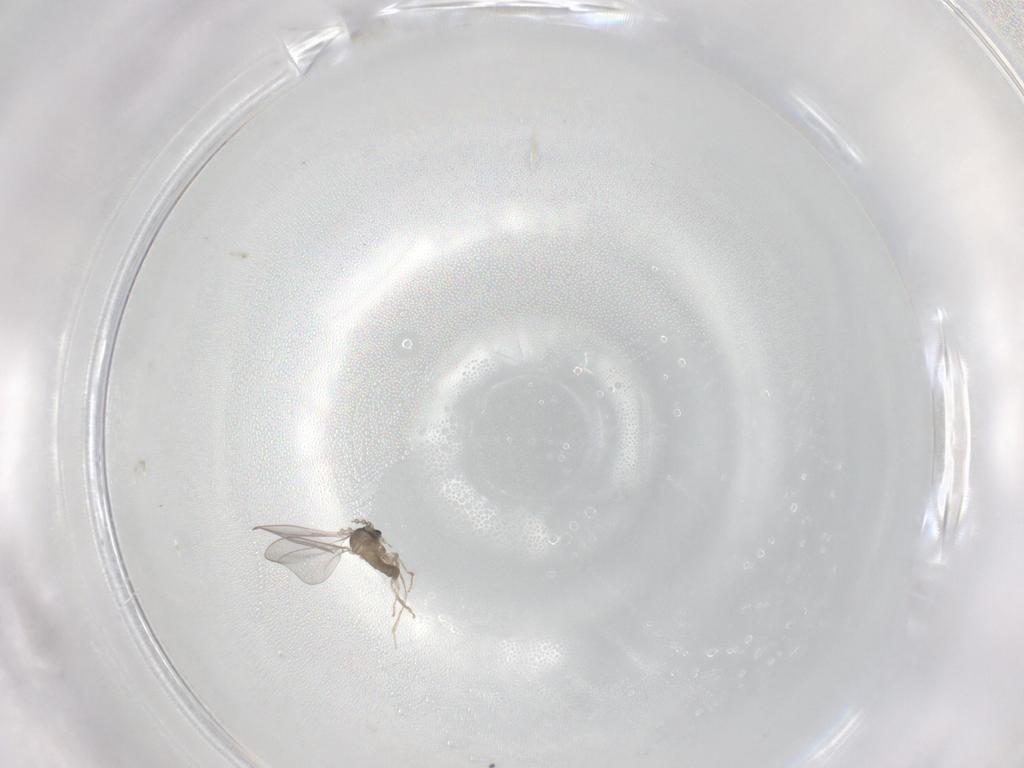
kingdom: Animalia
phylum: Arthropoda
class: Insecta
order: Diptera
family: Cecidomyiidae
